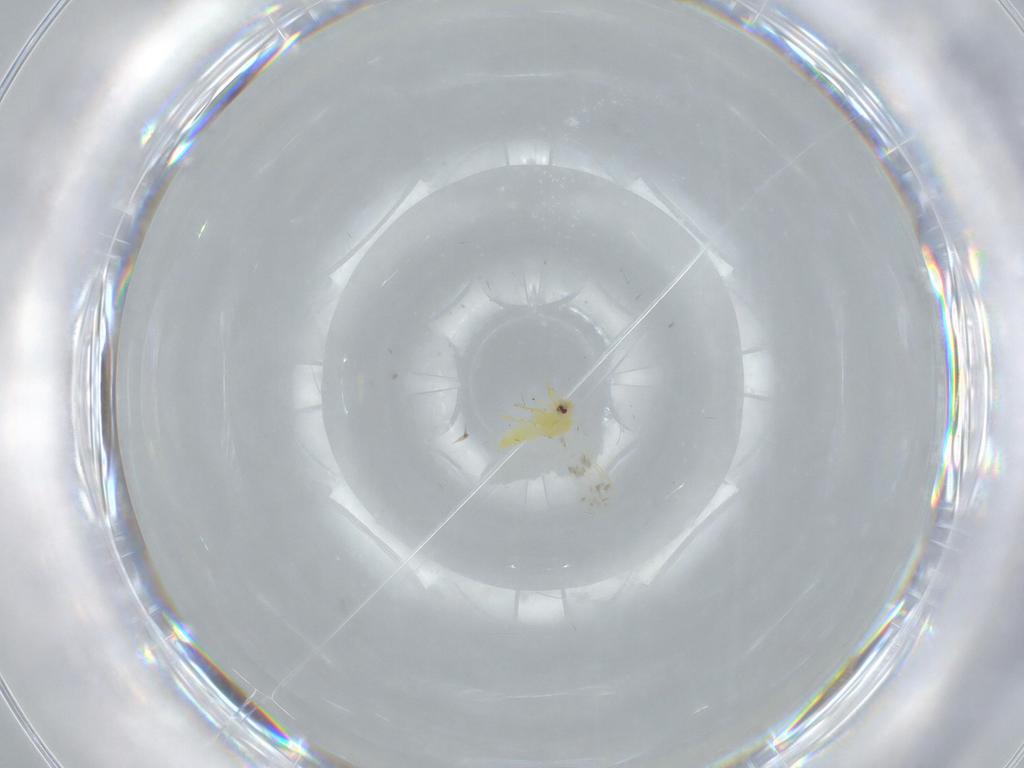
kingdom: Animalia
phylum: Arthropoda
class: Insecta
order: Hemiptera
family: Aleyrodidae
